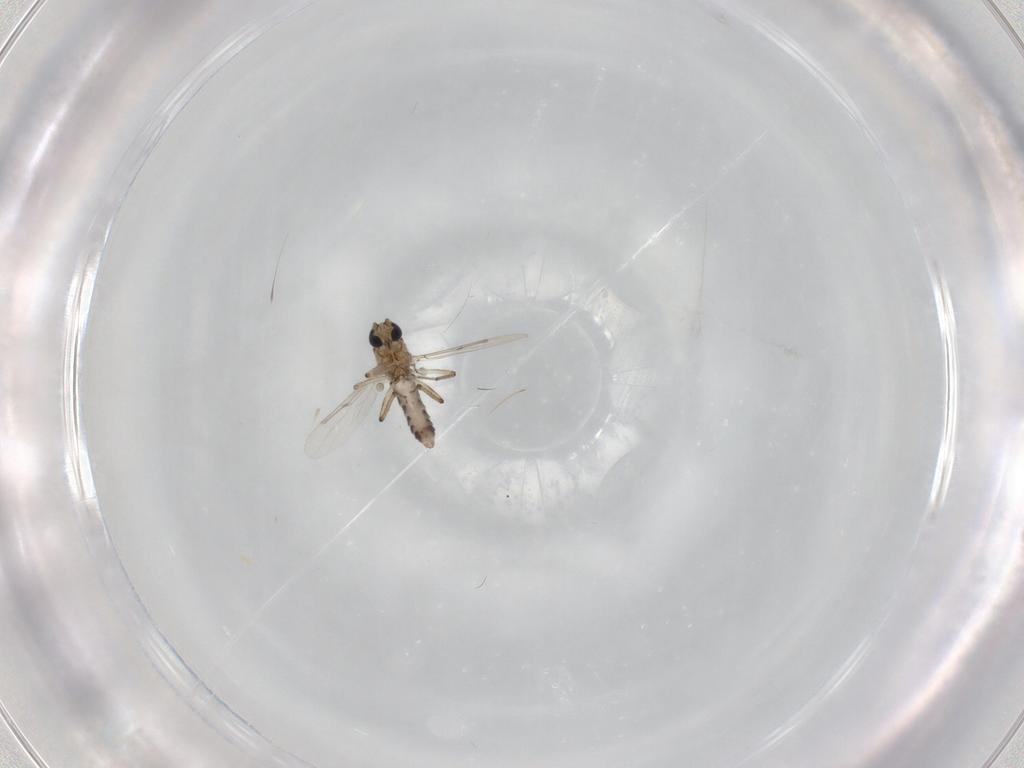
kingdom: Animalia
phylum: Arthropoda
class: Insecta
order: Diptera
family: Ceratopogonidae
